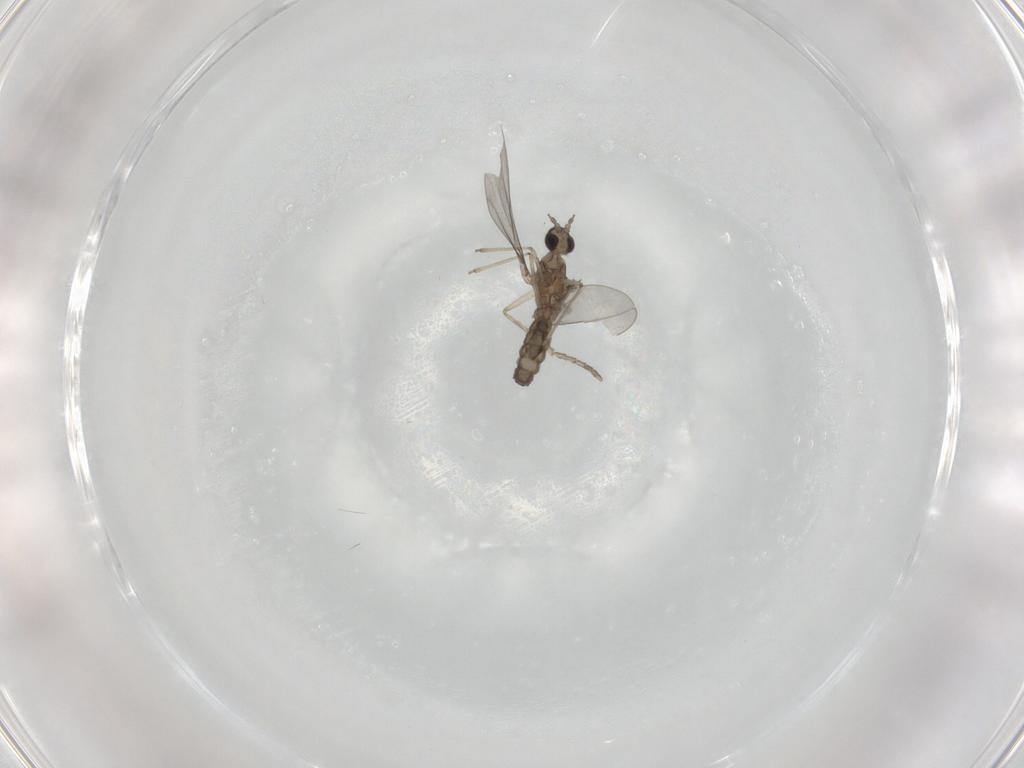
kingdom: Animalia
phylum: Arthropoda
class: Insecta
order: Diptera
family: Cecidomyiidae
